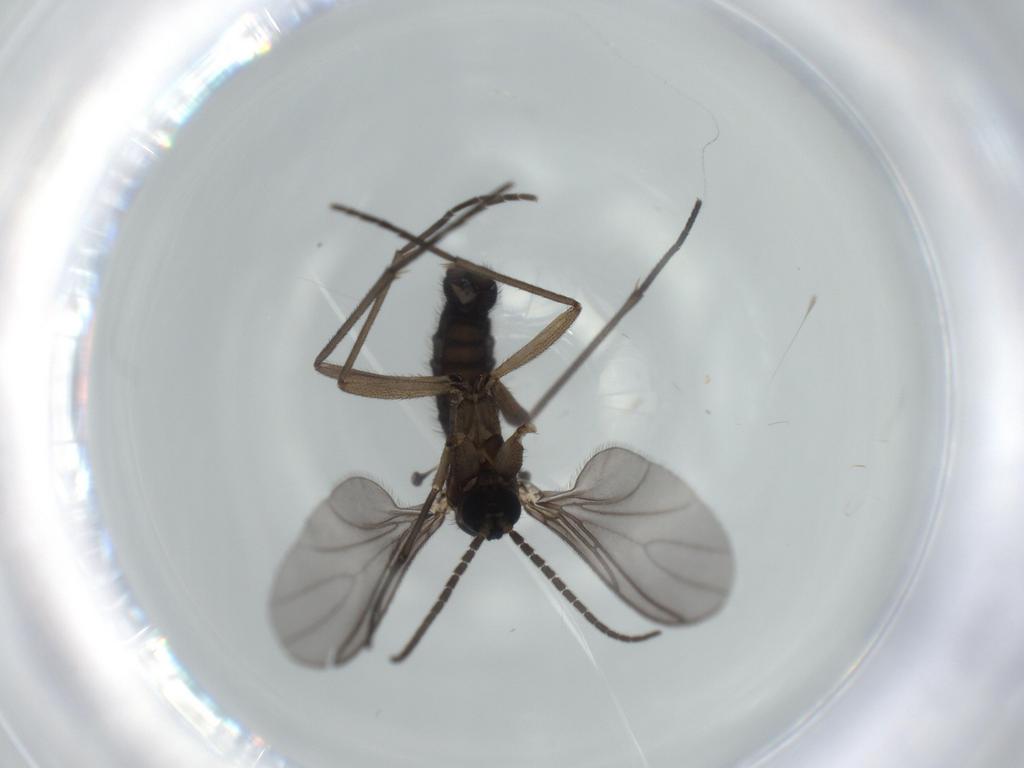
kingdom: Animalia
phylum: Arthropoda
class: Insecta
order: Diptera
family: Sciaridae
